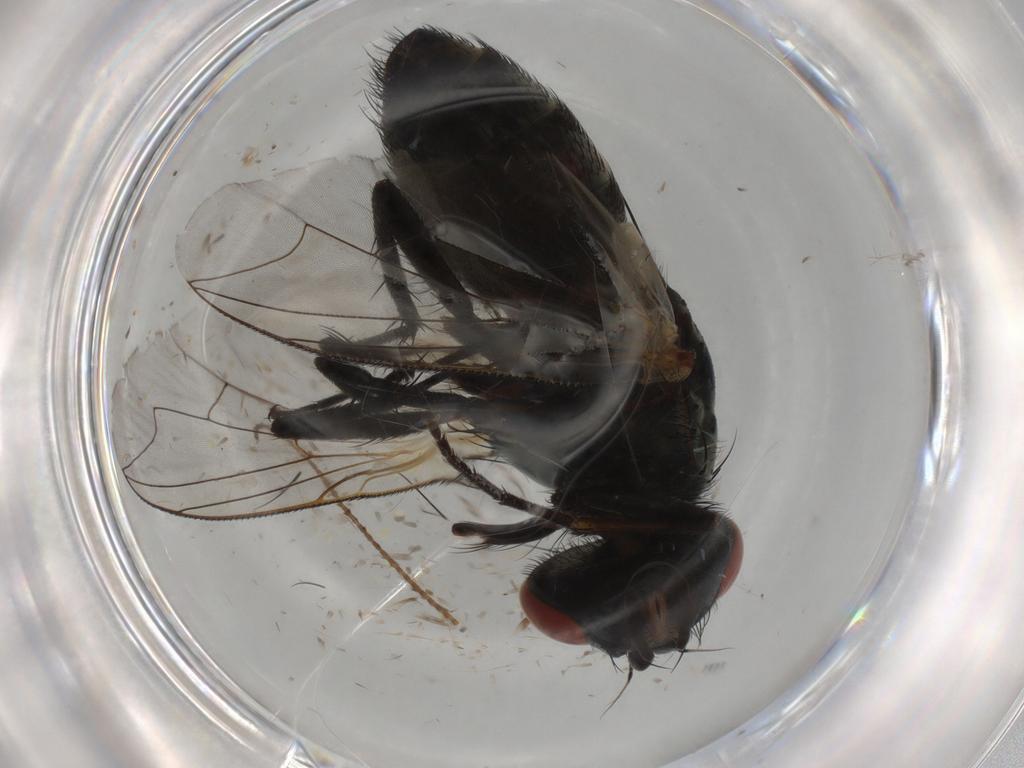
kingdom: Animalia
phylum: Arthropoda
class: Insecta
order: Diptera
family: Sarcophagidae
